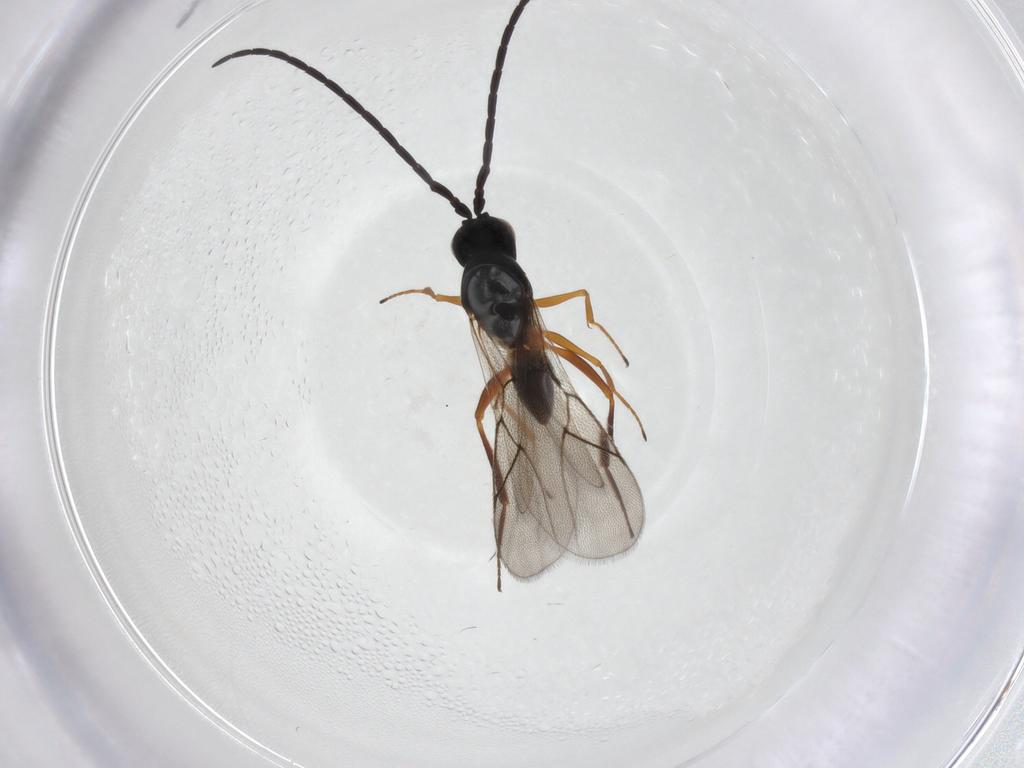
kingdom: Animalia
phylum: Arthropoda
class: Insecta
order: Hymenoptera
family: Figitidae
